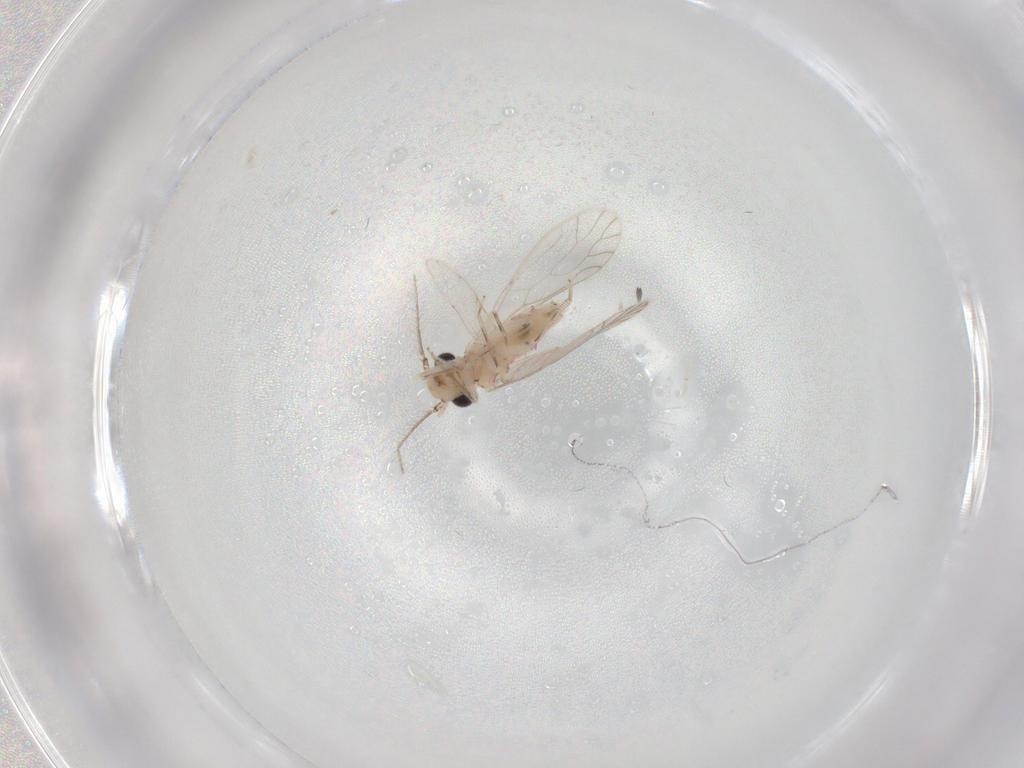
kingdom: Animalia
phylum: Arthropoda
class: Insecta
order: Psocodea
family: Caeciliusidae
